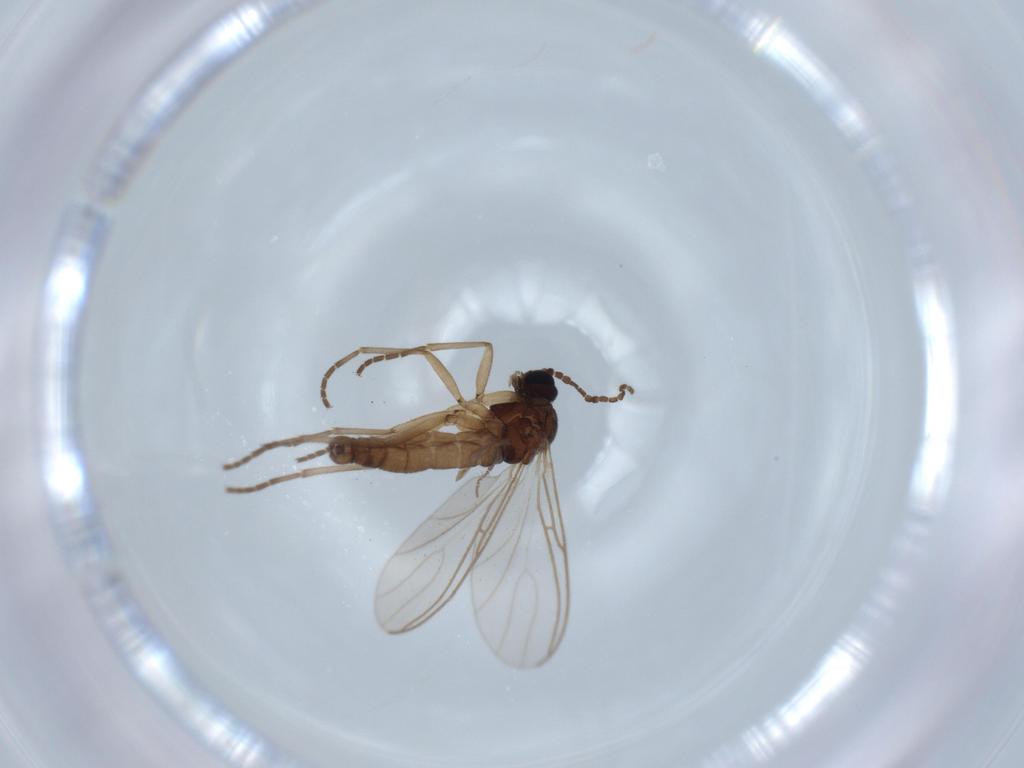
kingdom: Animalia
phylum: Arthropoda
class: Insecta
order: Diptera
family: Sciaridae
